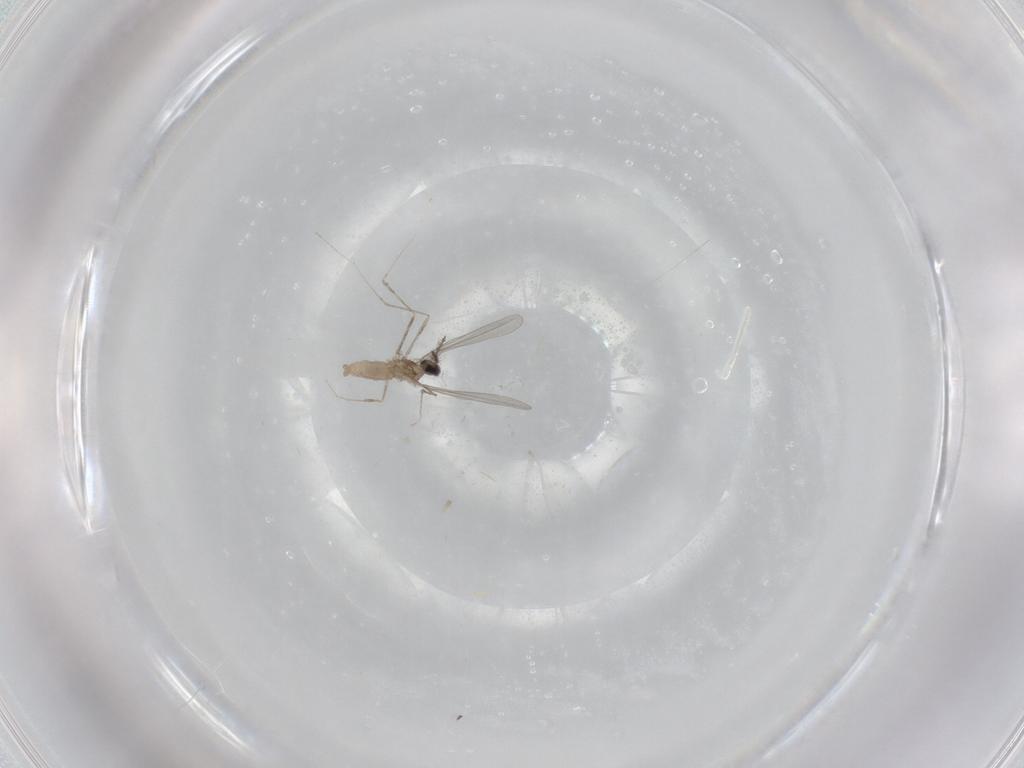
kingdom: Animalia
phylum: Arthropoda
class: Insecta
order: Diptera
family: Cecidomyiidae
